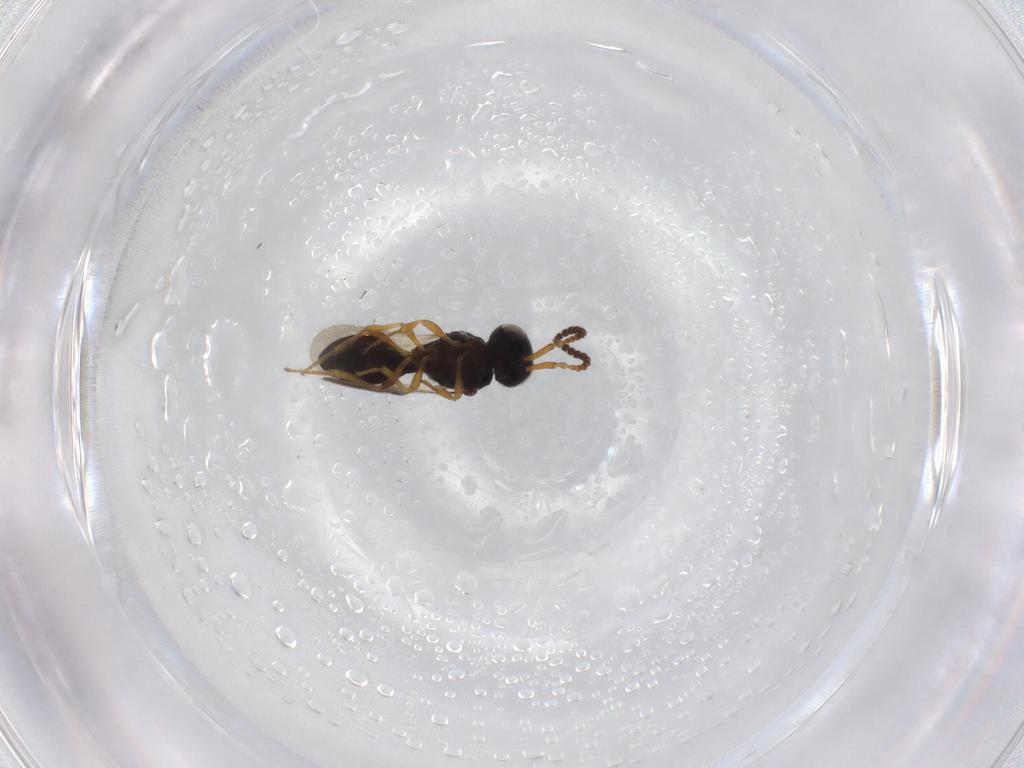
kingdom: Animalia
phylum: Arthropoda
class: Insecta
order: Hymenoptera
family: Scelionidae
